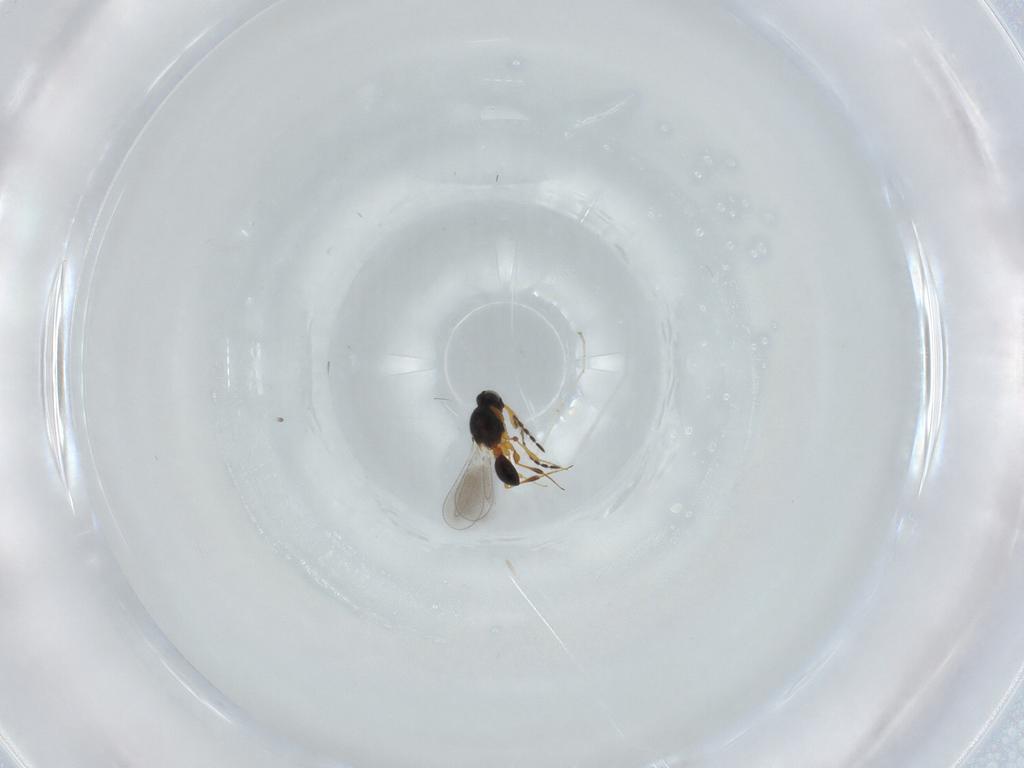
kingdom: Animalia
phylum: Arthropoda
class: Insecta
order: Hymenoptera
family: Platygastridae
